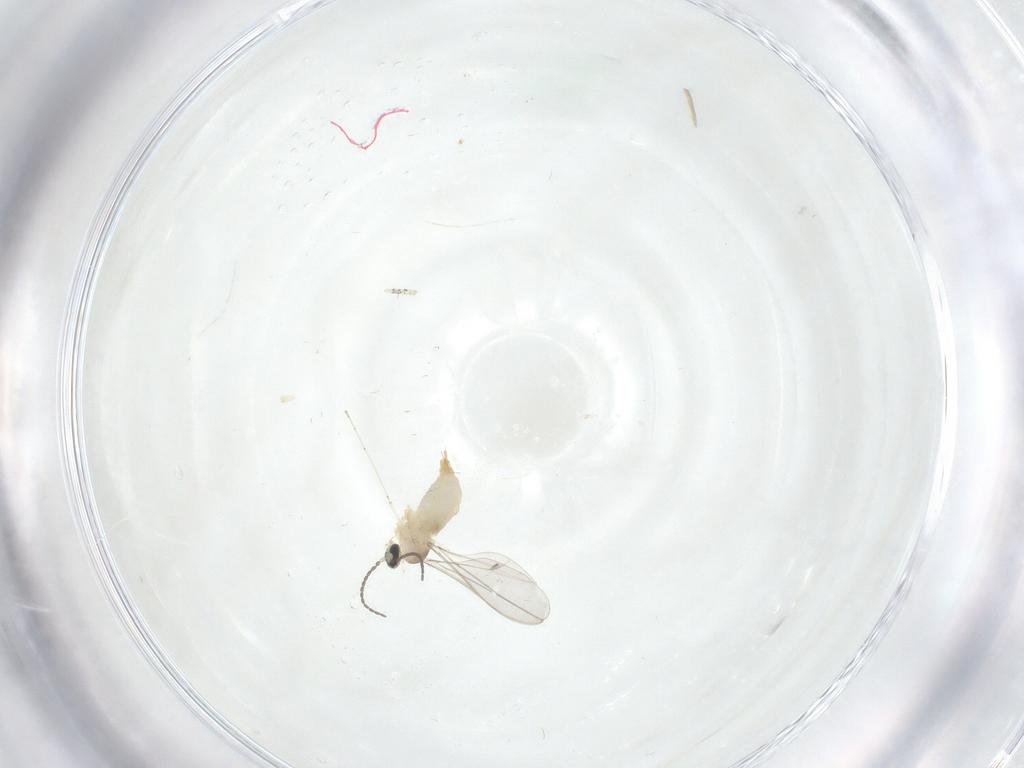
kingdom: Animalia
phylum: Arthropoda
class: Insecta
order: Diptera
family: Cecidomyiidae
